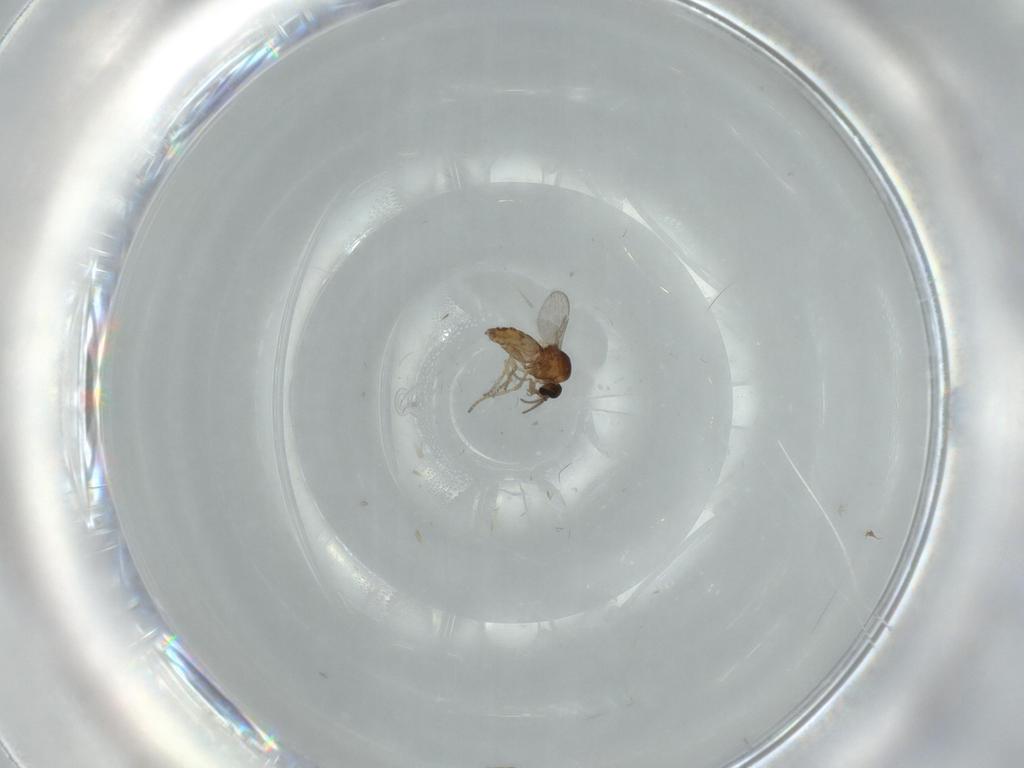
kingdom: Animalia
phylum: Arthropoda
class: Insecta
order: Diptera
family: Ceratopogonidae
